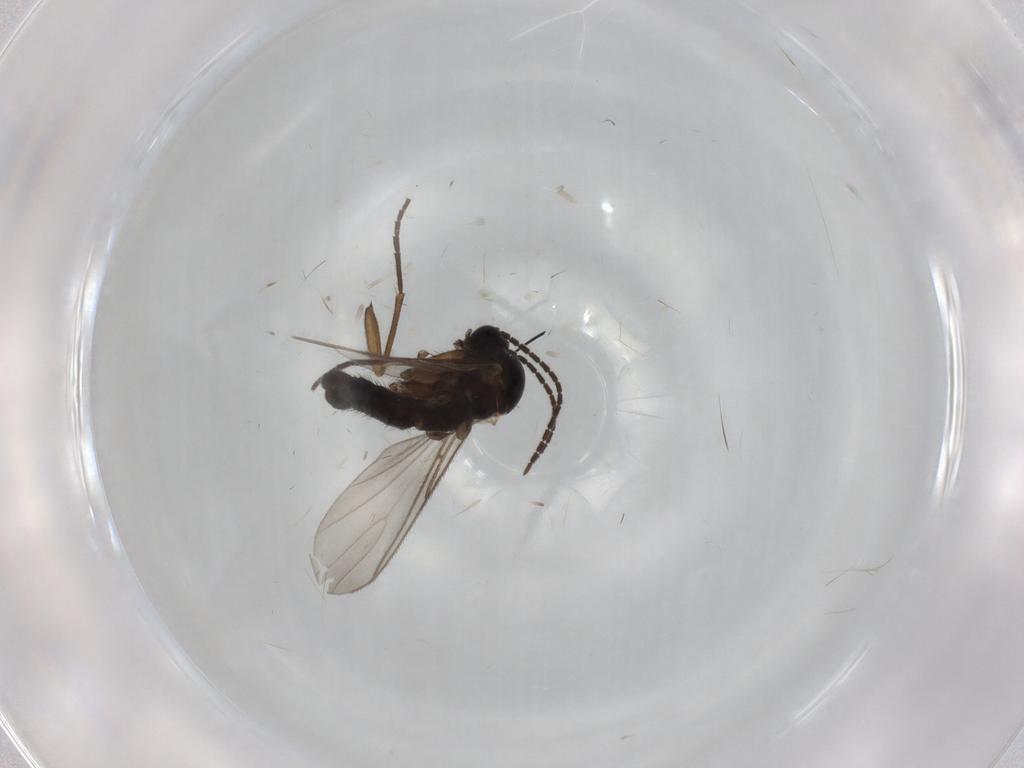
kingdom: Animalia
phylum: Arthropoda
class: Insecta
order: Diptera
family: Sciaridae
